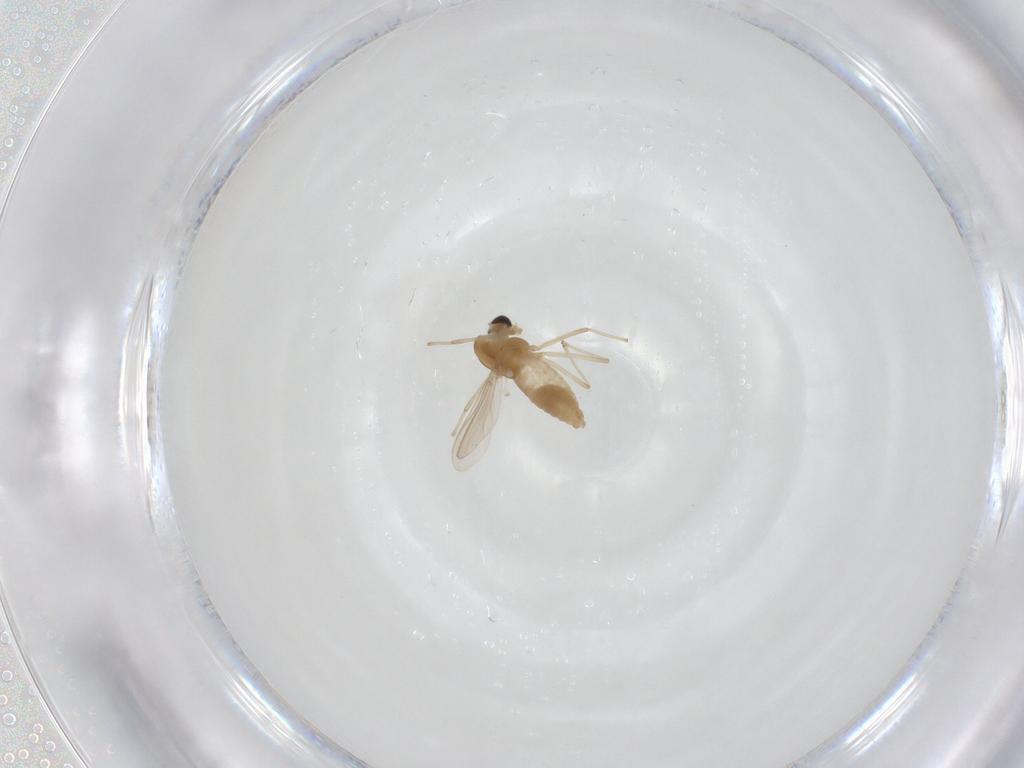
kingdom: Animalia
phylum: Arthropoda
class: Insecta
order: Diptera
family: Ceratopogonidae
